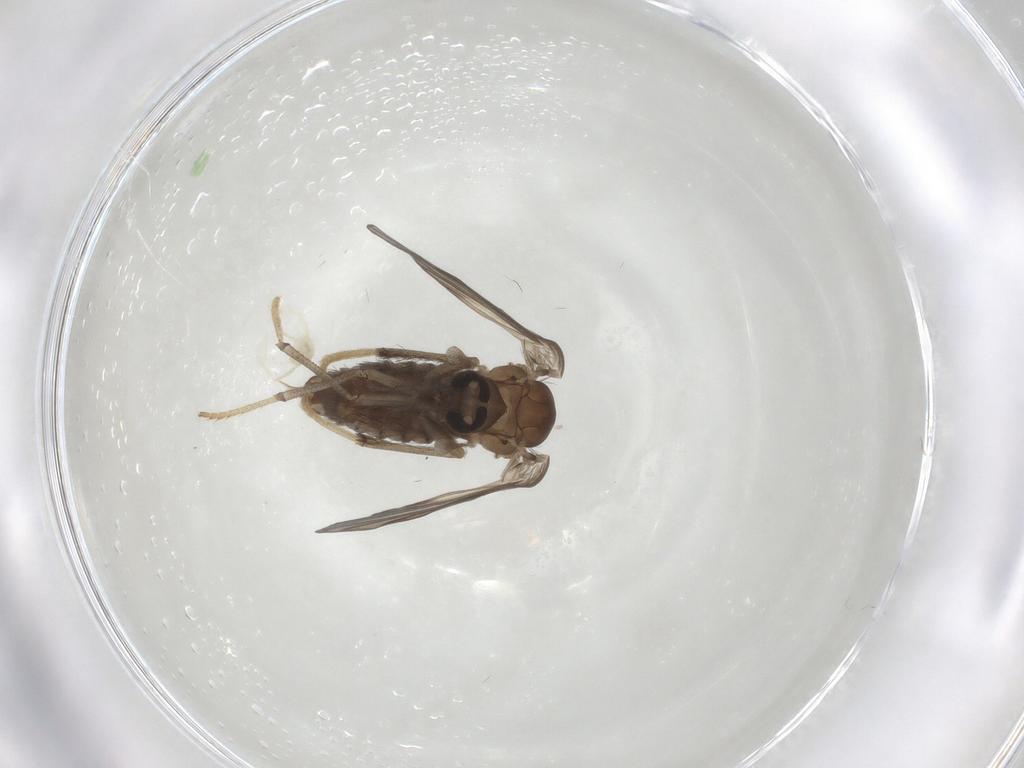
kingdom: Animalia
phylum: Arthropoda
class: Insecta
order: Diptera
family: Psychodidae
